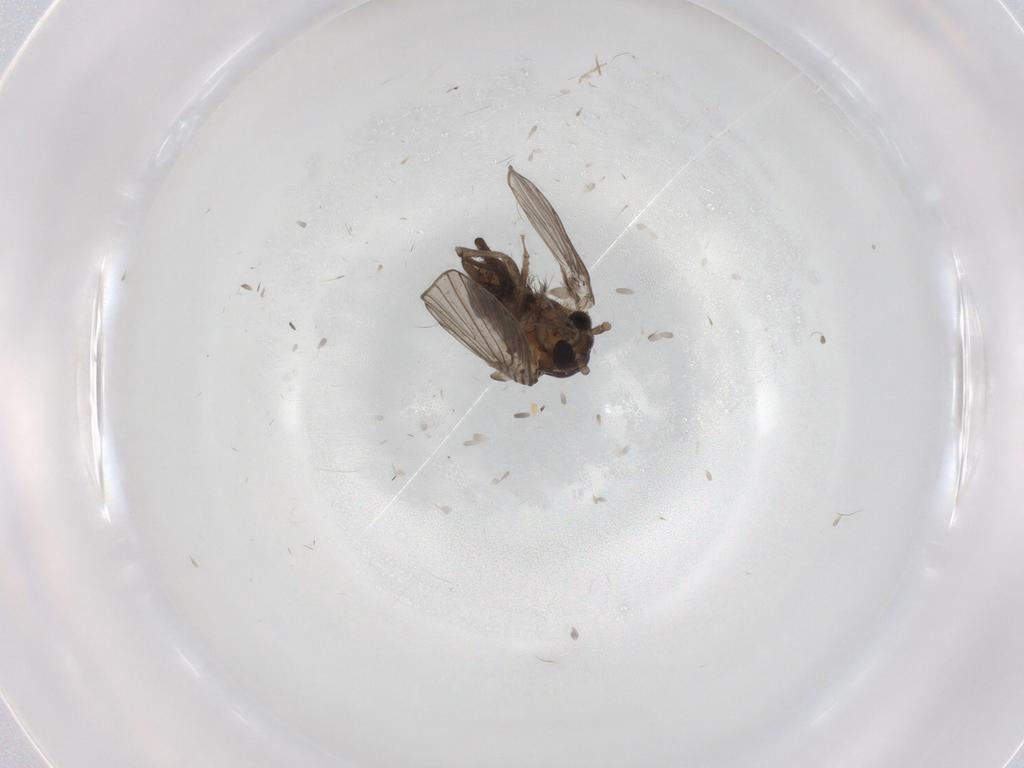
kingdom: Animalia
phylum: Arthropoda
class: Insecta
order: Diptera
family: Psychodidae
